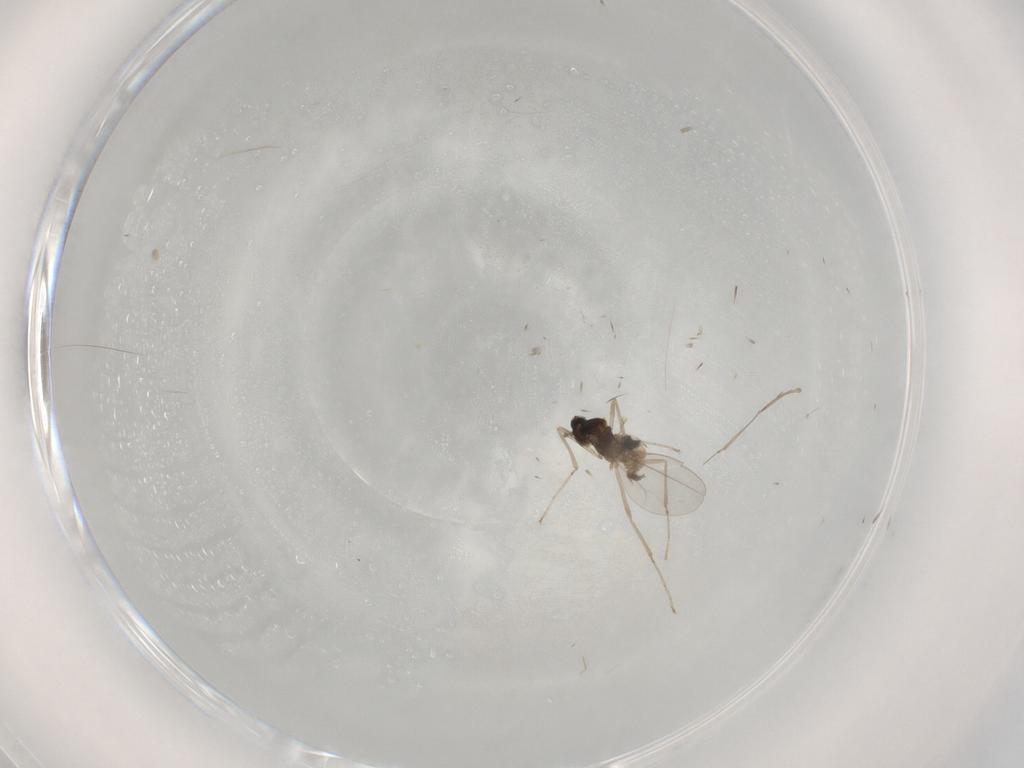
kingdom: Animalia
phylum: Arthropoda
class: Insecta
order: Diptera
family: Cecidomyiidae
